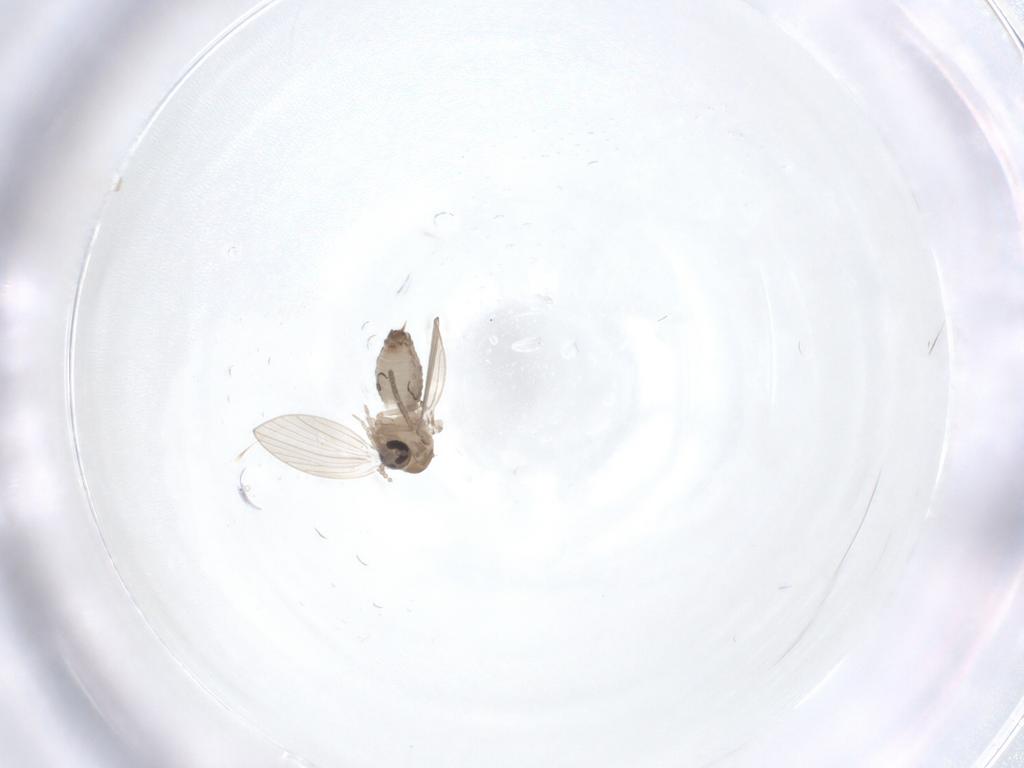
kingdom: Animalia
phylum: Arthropoda
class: Insecta
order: Diptera
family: Psychodidae
